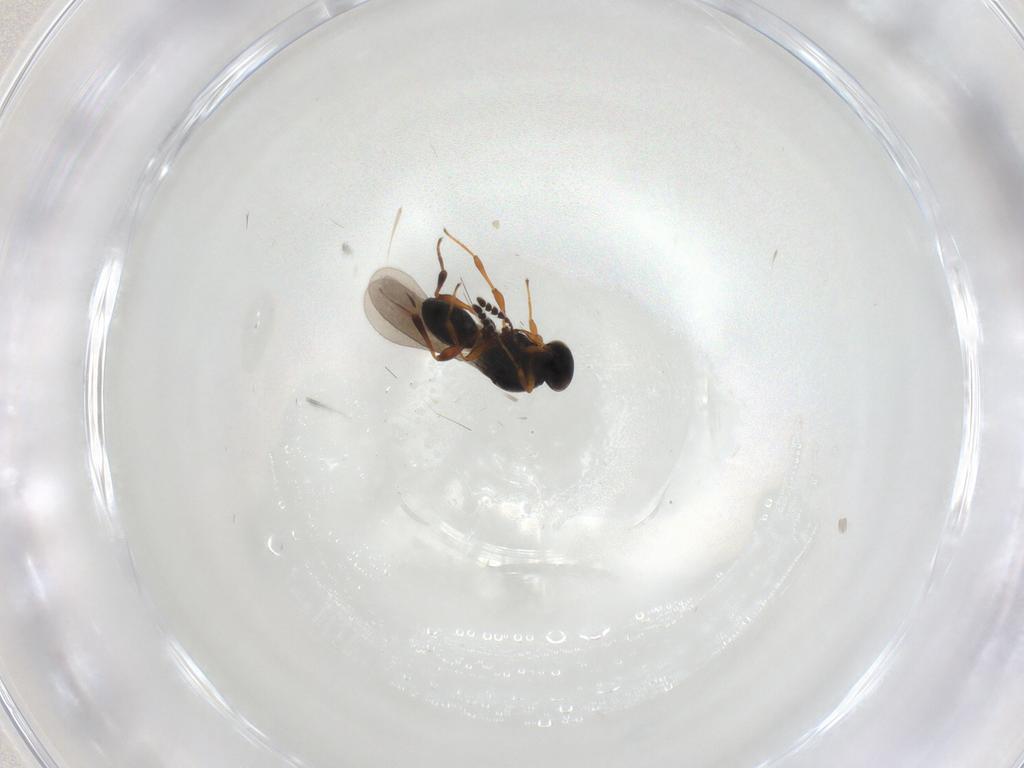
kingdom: Animalia
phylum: Arthropoda
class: Insecta
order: Hymenoptera
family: Platygastridae
